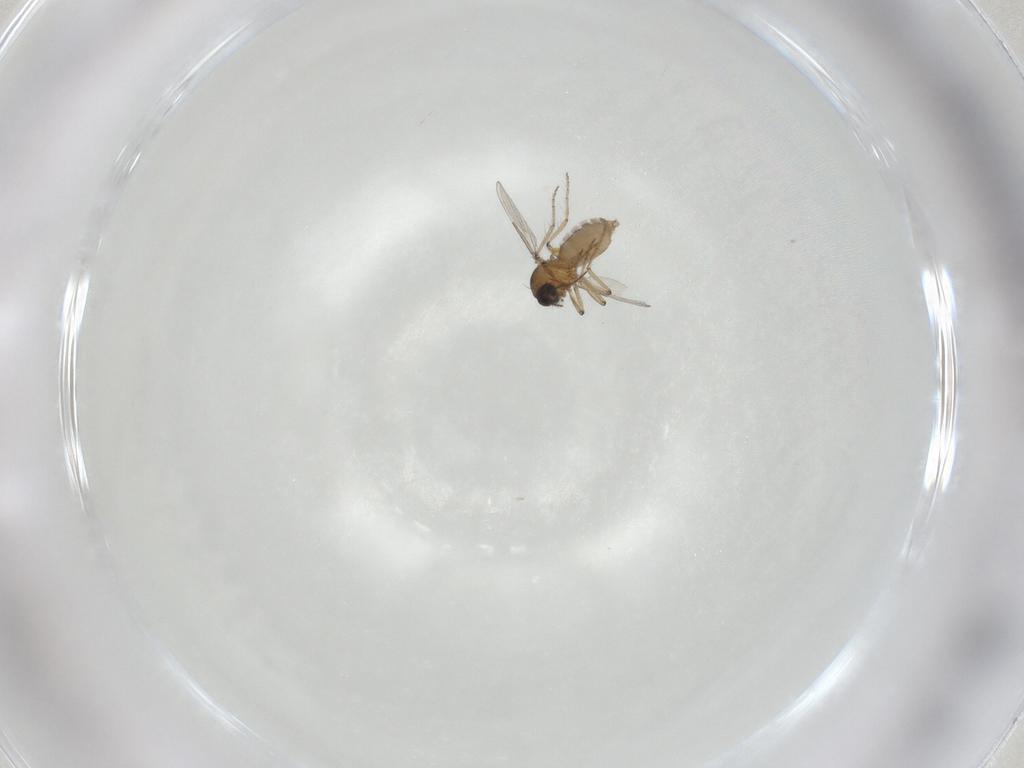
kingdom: Animalia
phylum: Arthropoda
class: Insecta
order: Diptera
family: Ceratopogonidae
